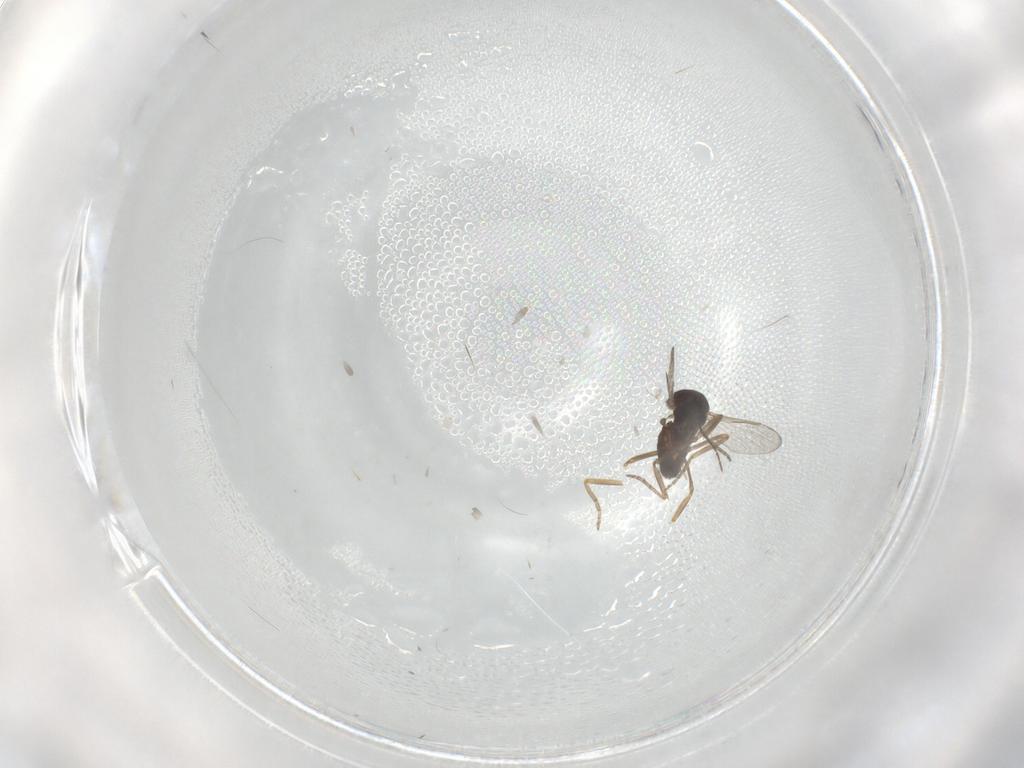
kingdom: Animalia
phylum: Arthropoda
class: Insecta
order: Diptera
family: Ceratopogonidae
